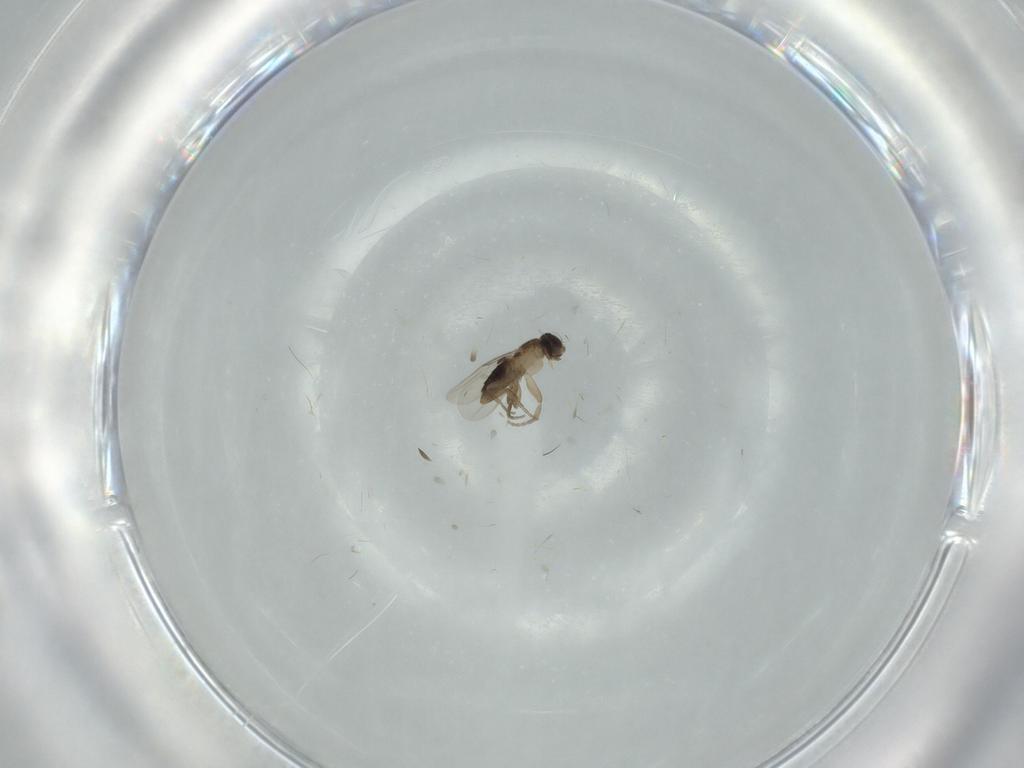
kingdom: Animalia
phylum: Arthropoda
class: Insecta
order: Diptera
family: Phoridae
